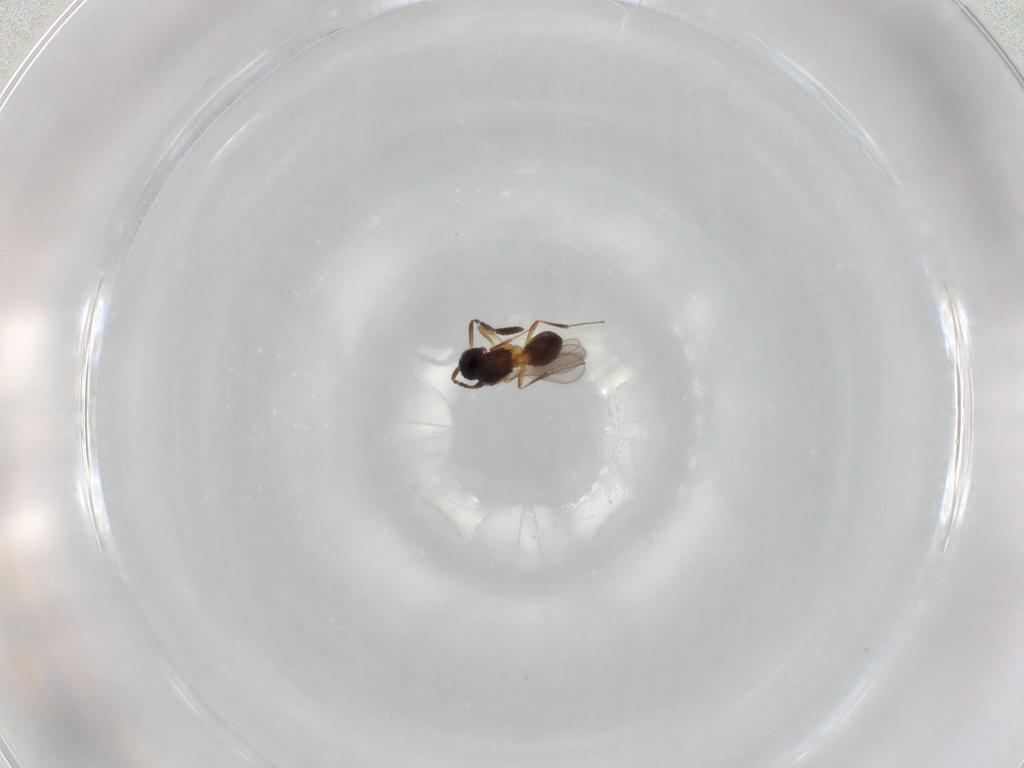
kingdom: Animalia
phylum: Arthropoda
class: Insecta
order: Hymenoptera
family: Scelionidae
